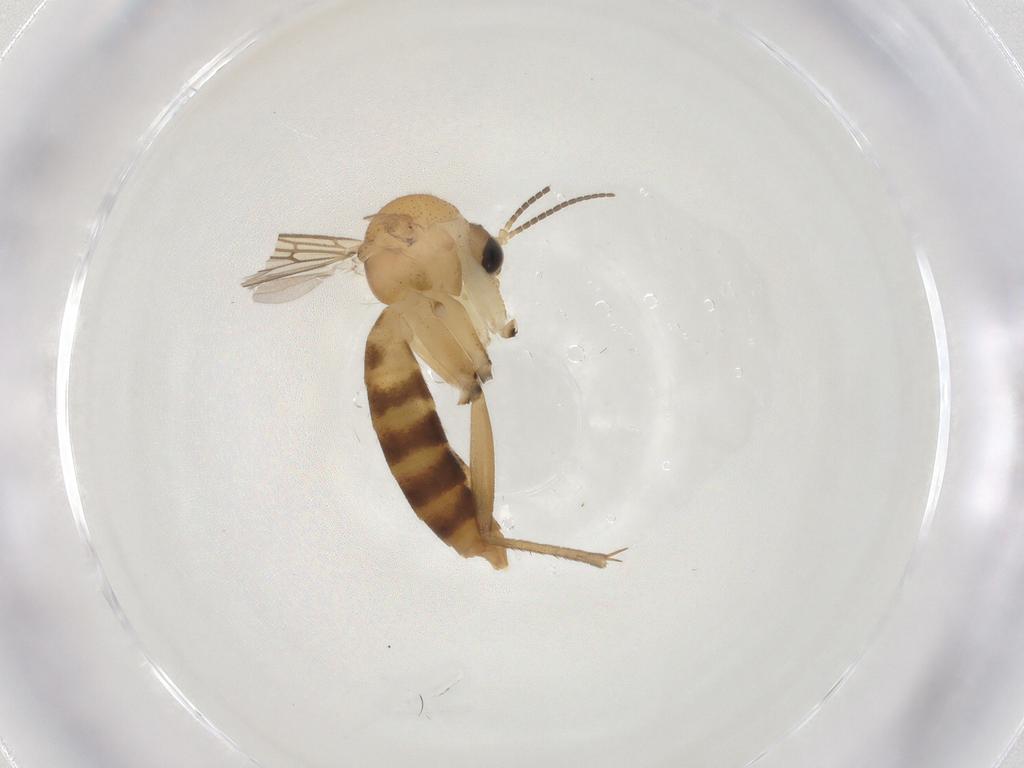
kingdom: Animalia
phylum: Arthropoda
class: Insecta
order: Diptera
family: Mycetophilidae
